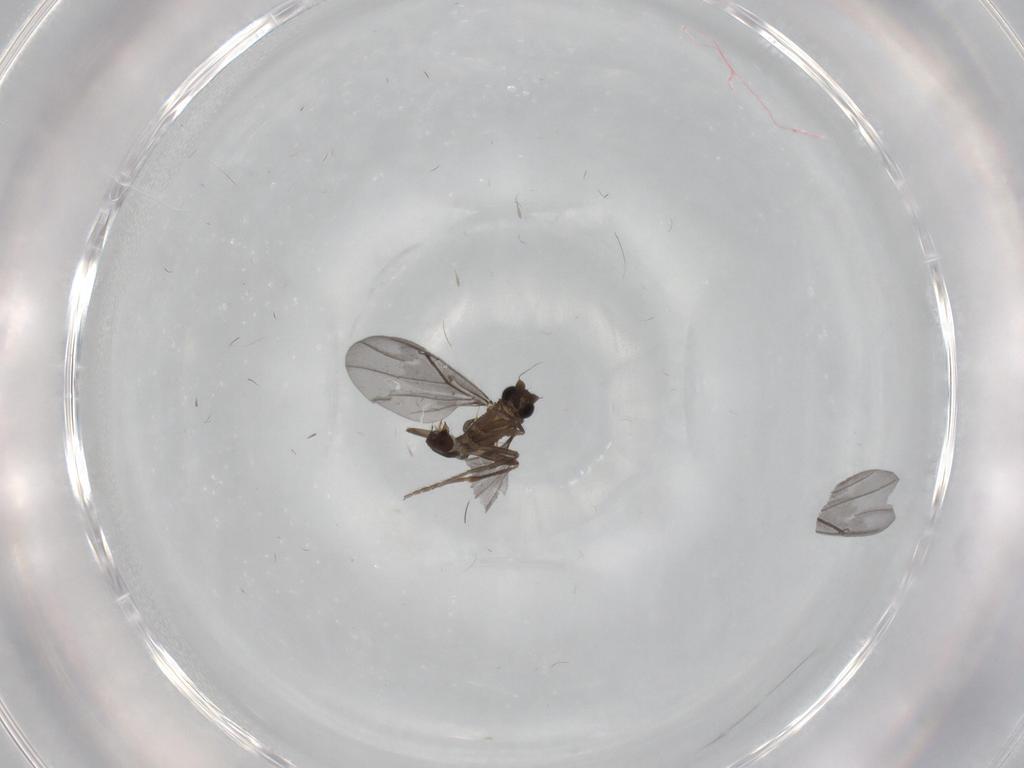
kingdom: Animalia
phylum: Arthropoda
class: Insecta
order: Diptera
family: Phoridae
